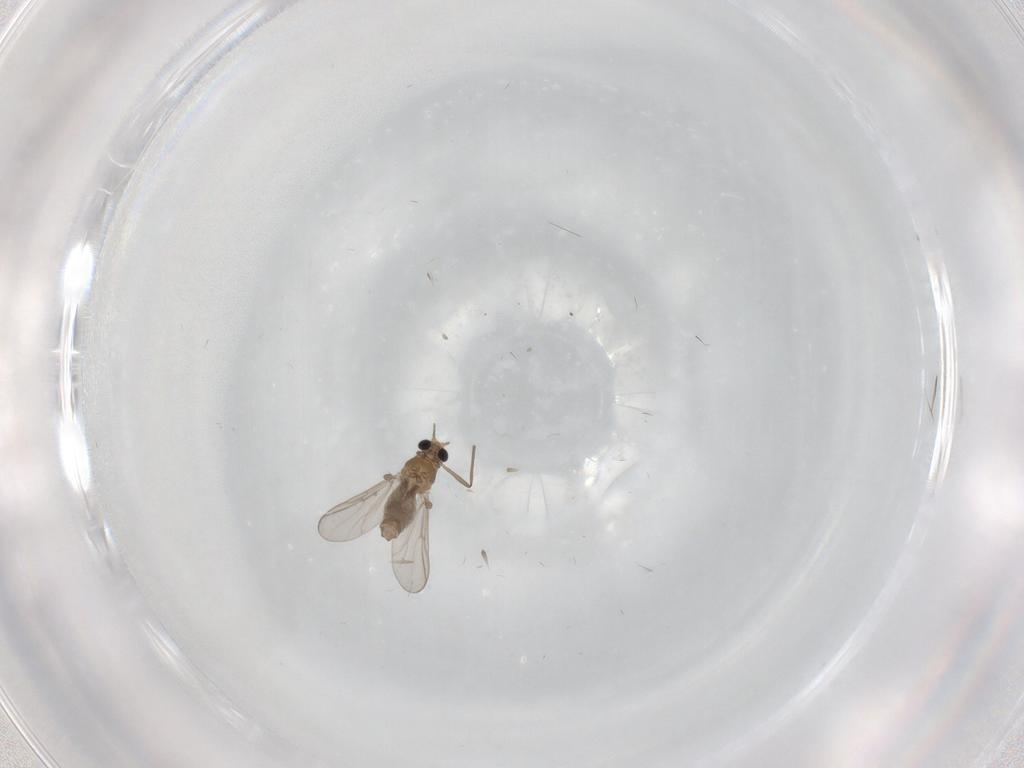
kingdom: Animalia
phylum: Arthropoda
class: Insecta
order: Diptera
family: Chironomidae
